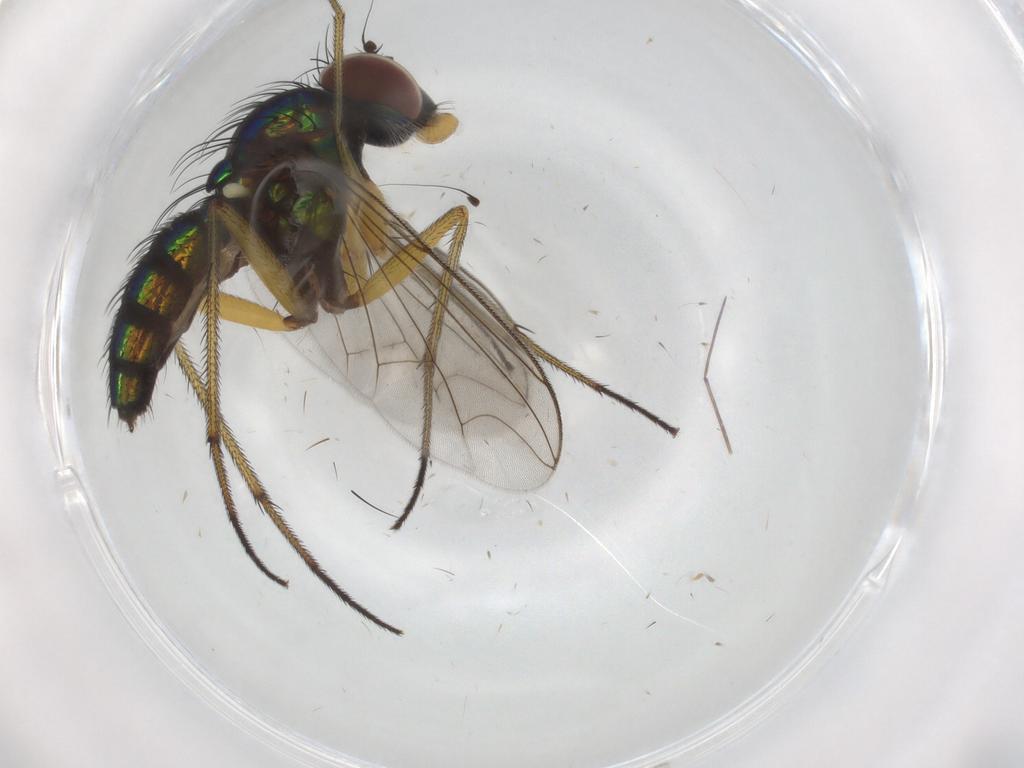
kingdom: Animalia
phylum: Arthropoda
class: Insecta
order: Diptera
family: Dolichopodidae
